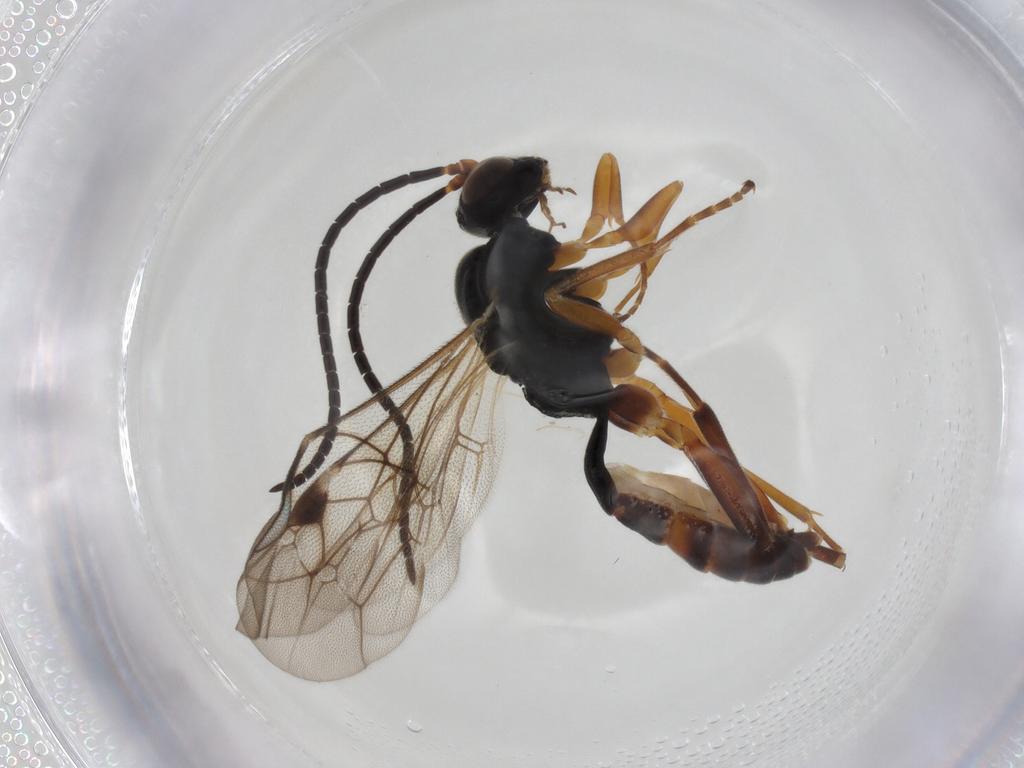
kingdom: Animalia
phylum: Arthropoda
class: Insecta
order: Hymenoptera
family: Ichneumonidae
